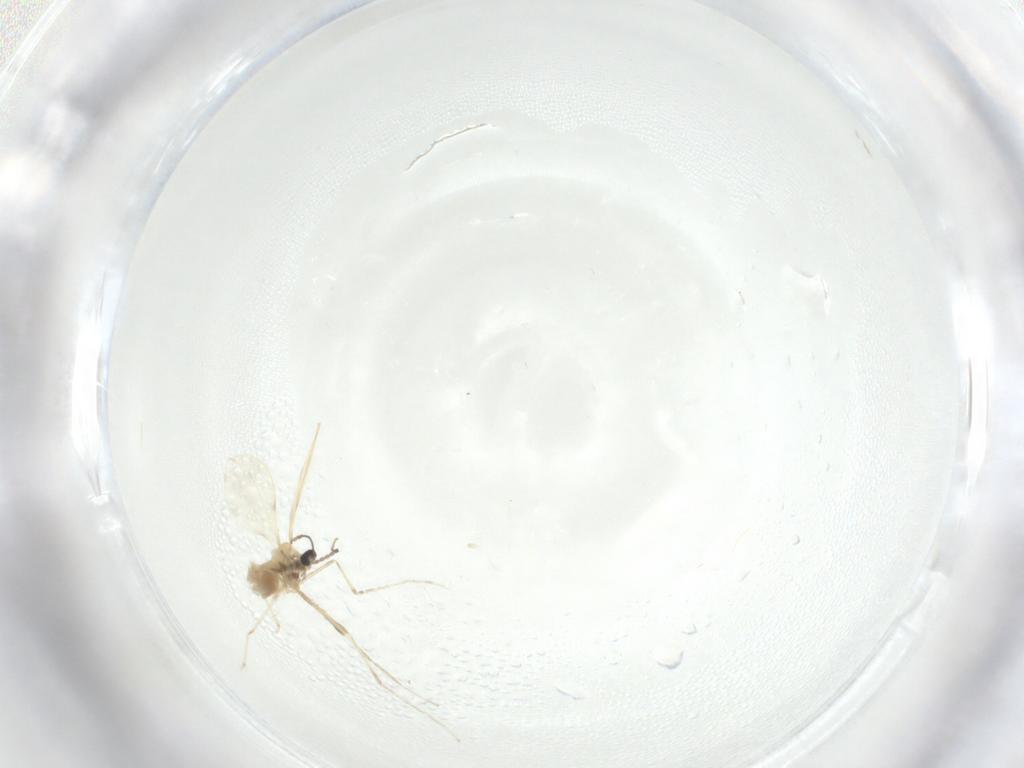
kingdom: Animalia
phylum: Arthropoda
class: Insecta
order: Diptera
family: Cecidomyiidae
